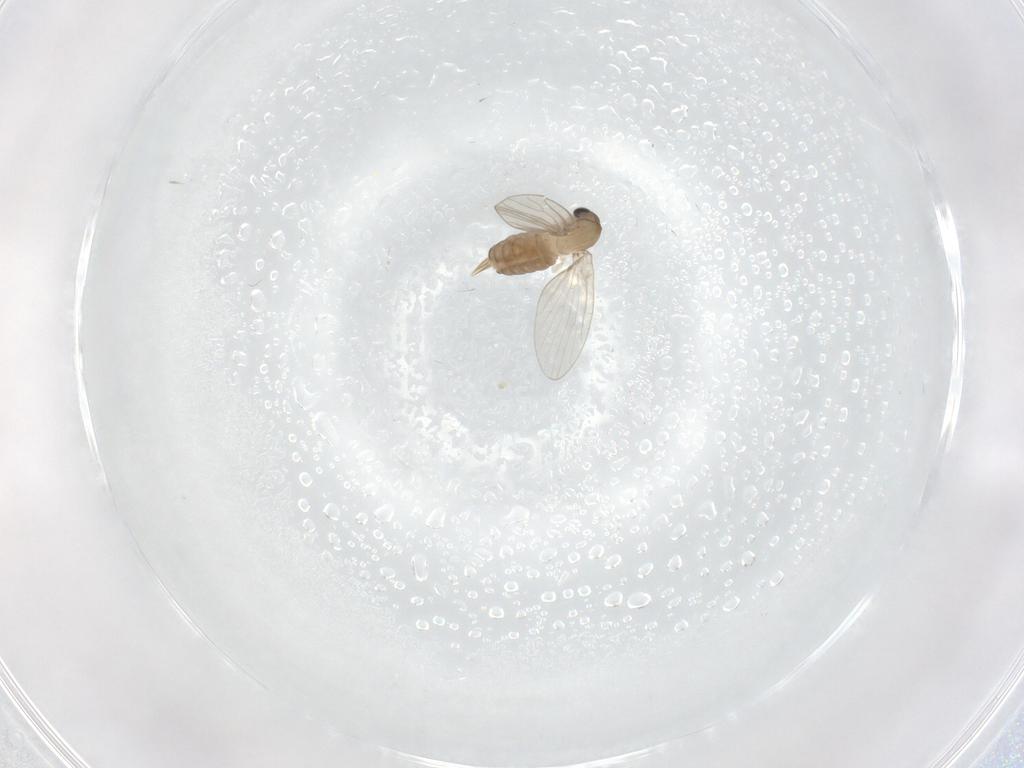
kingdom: Animalia
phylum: Arthropoda
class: Insecta
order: Diptera
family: Psychodidae
